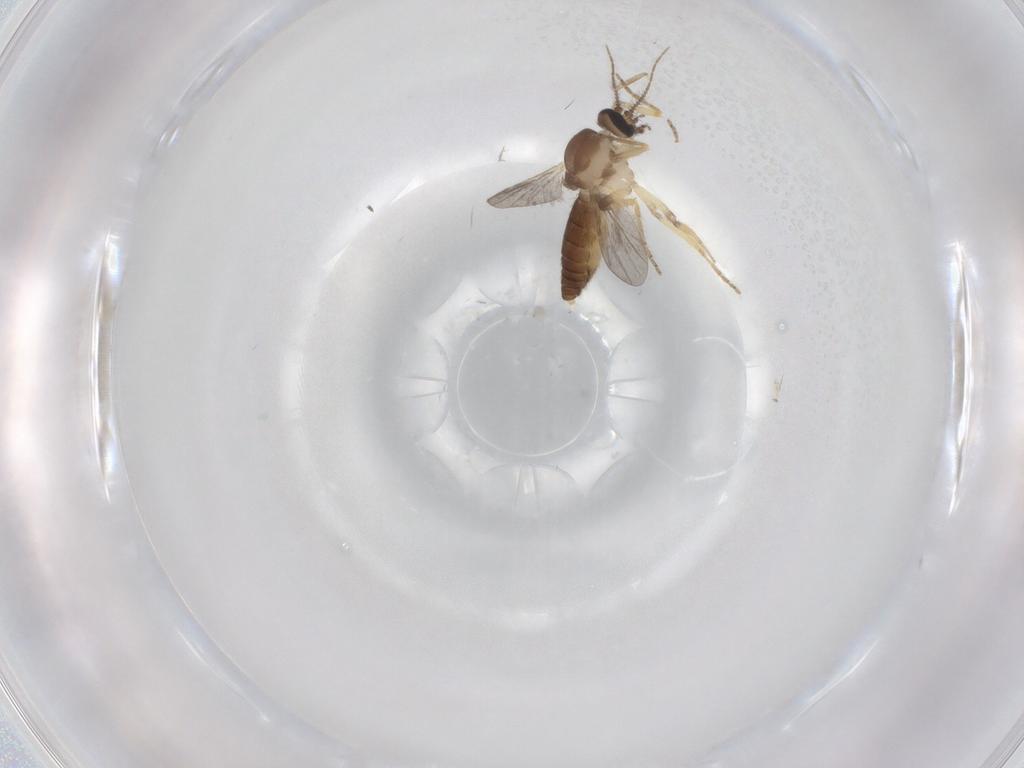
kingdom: Animalia
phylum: Arthropoda
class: Insecta
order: Diptera
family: Ceratopogonidae
